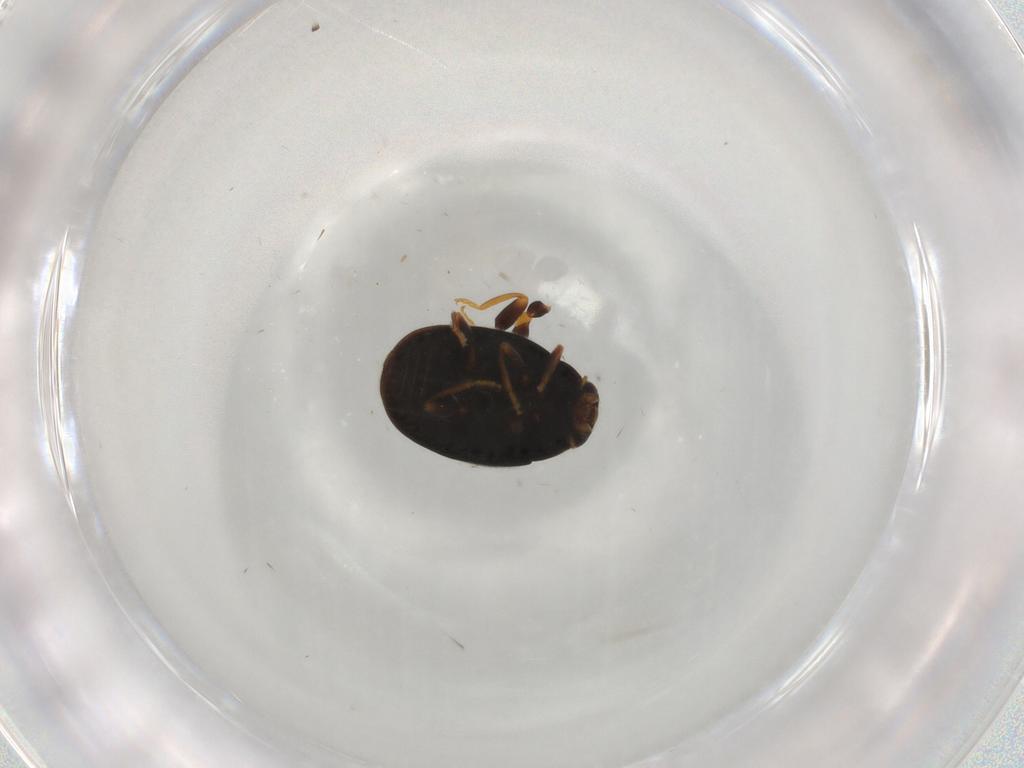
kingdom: Animalia
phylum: Arthropoda
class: Insecta
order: Coleoptera
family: Coccinellidae
